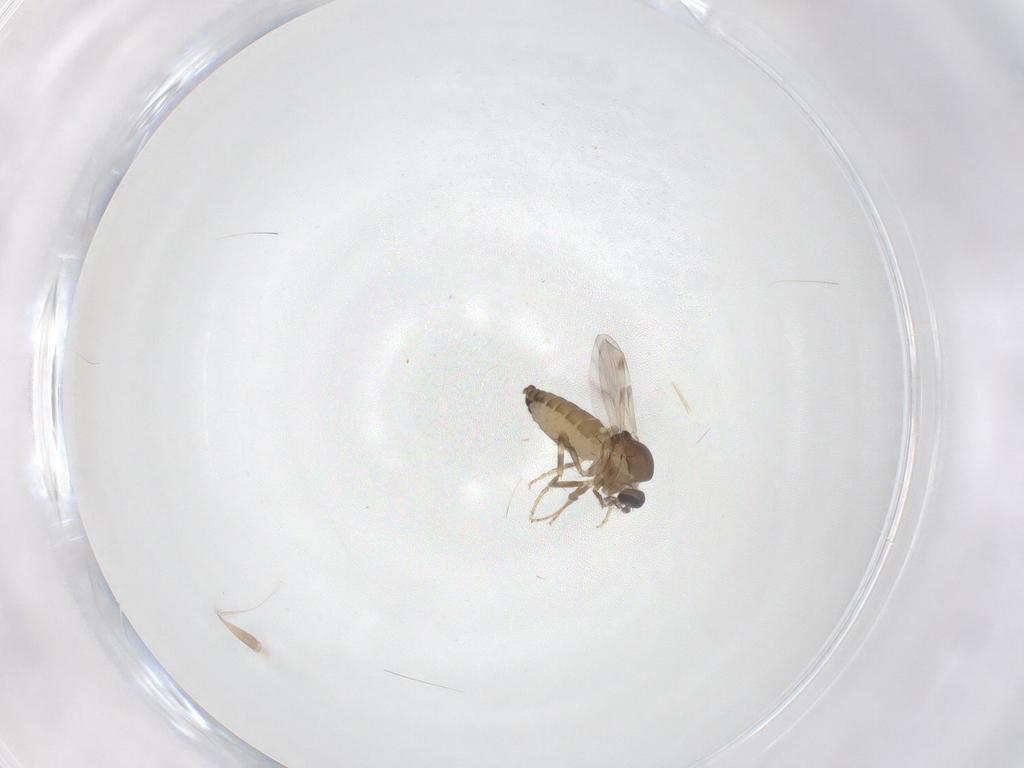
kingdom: Animalia
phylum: Arthropoda
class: Insecta
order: Diptera
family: Ceratopogonidae
